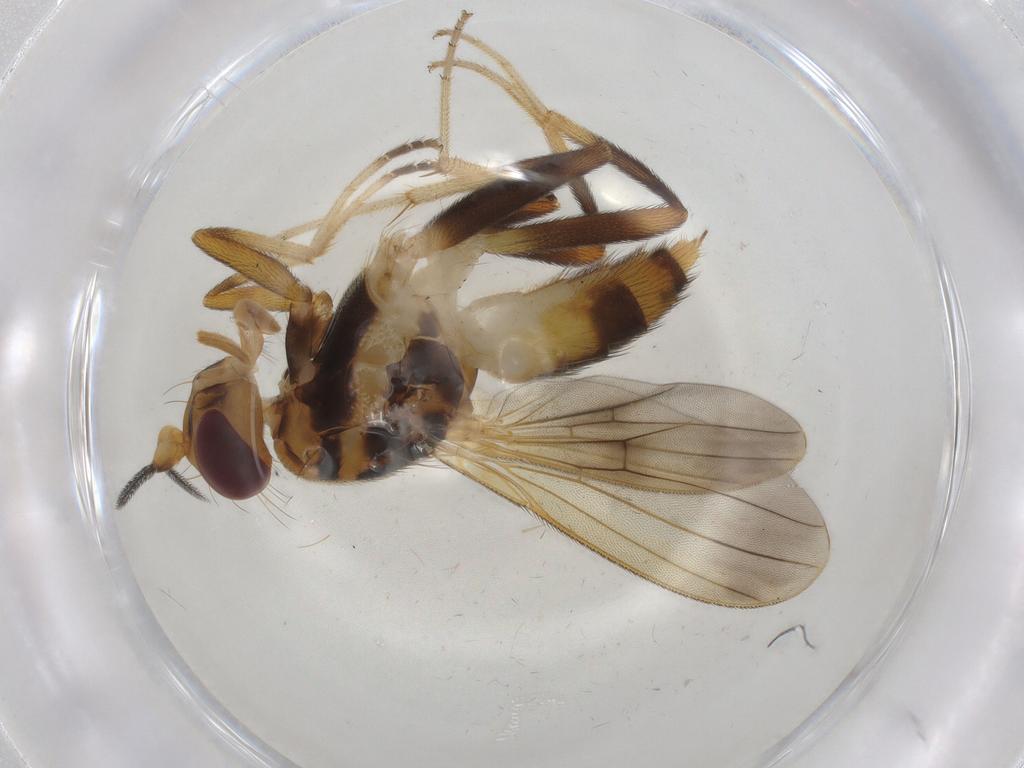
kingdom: Animalia
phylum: Arthropoda
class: Insecta
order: Diptera
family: Clusiidae
